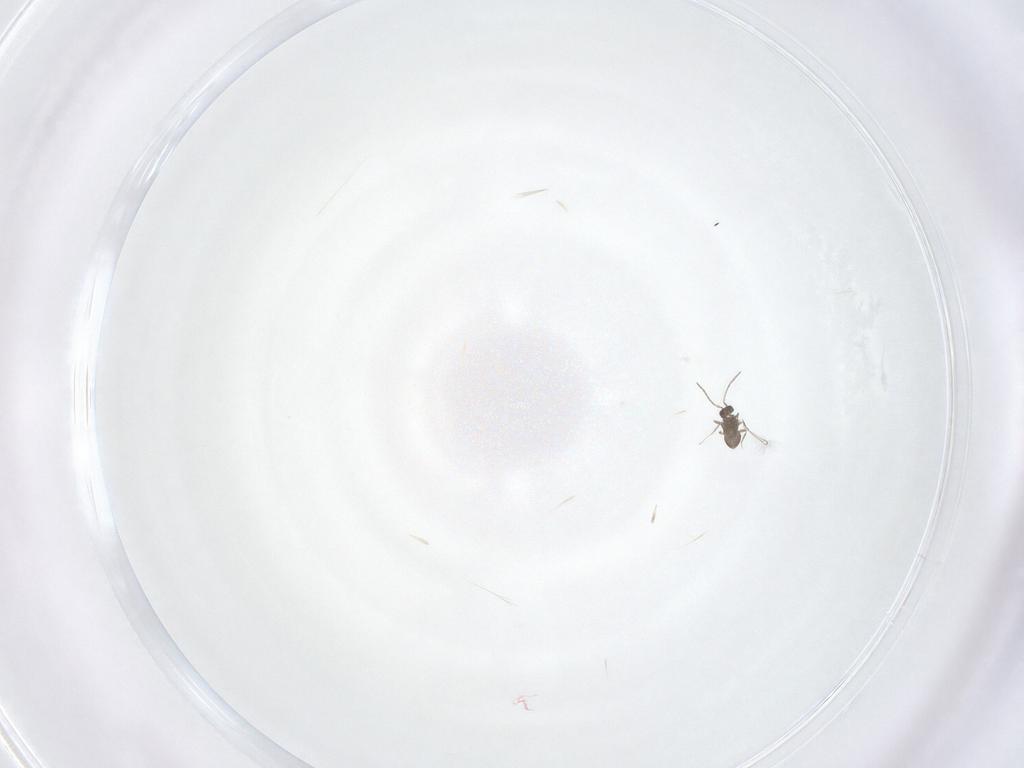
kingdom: Animalia
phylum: Arthropoda
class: Insecta
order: Hymenoptera
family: Mymaridae
